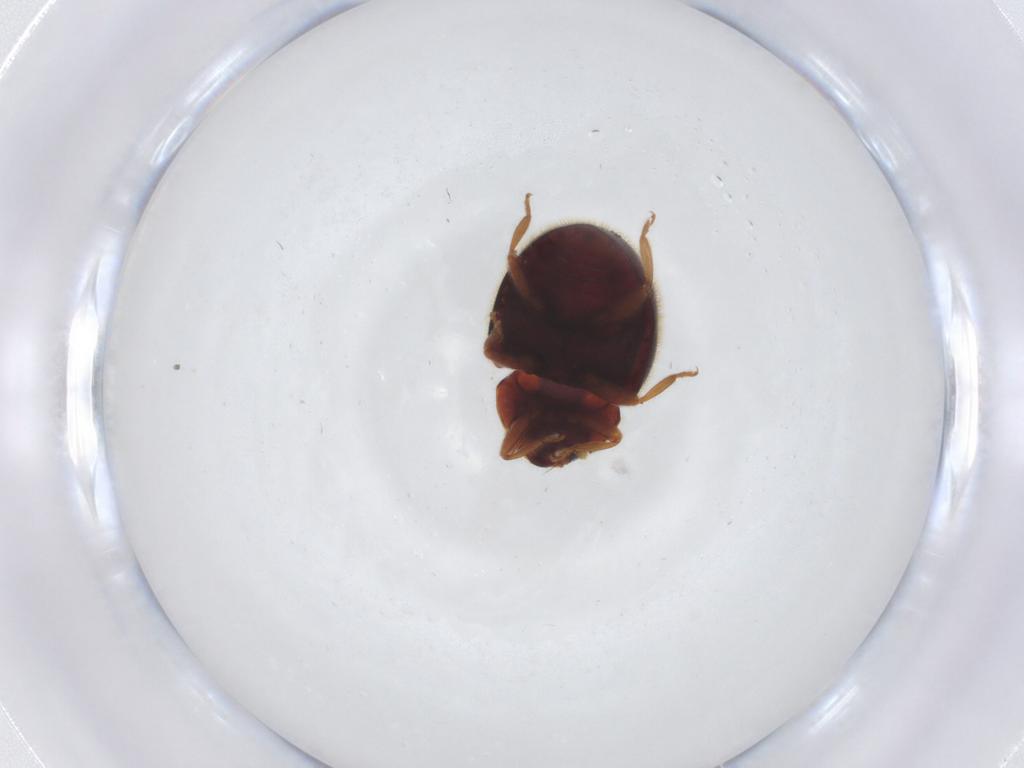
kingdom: Animalia
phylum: Arthropoda
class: Insecta
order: Coleoptera
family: Coccinellidae
